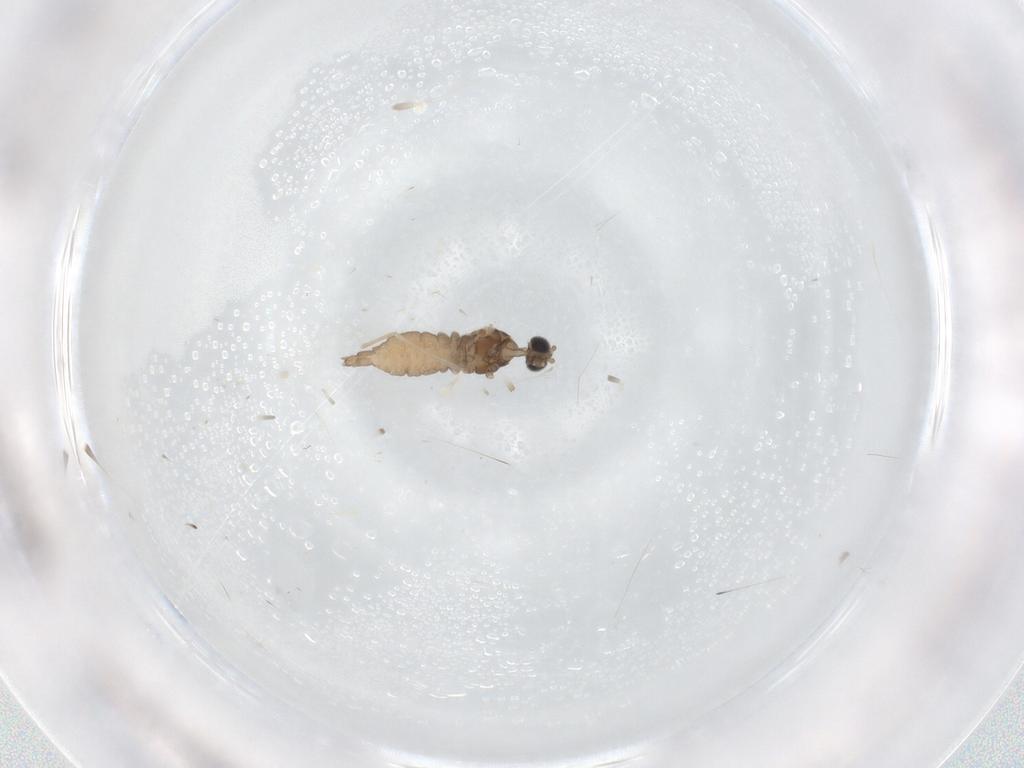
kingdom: Animalia
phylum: Arthropoda
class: Insecta
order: Diptera
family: Cecidomyiidae
